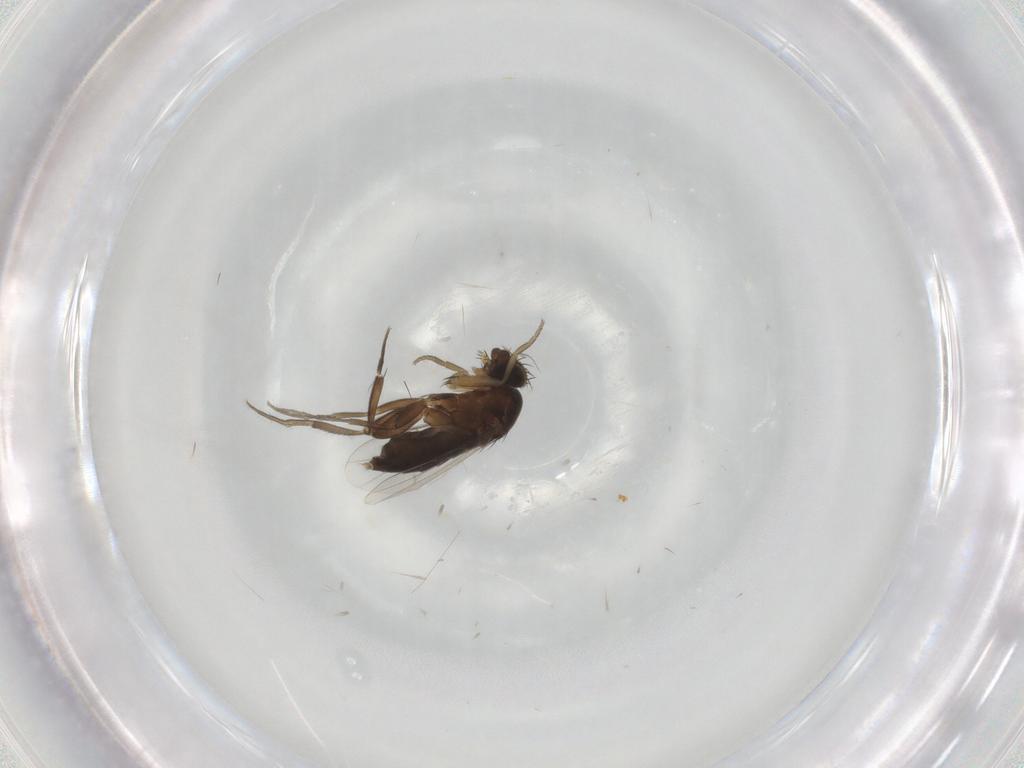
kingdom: Animalia
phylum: Arthropoda
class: Insecta
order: Diptera
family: Phoridae
